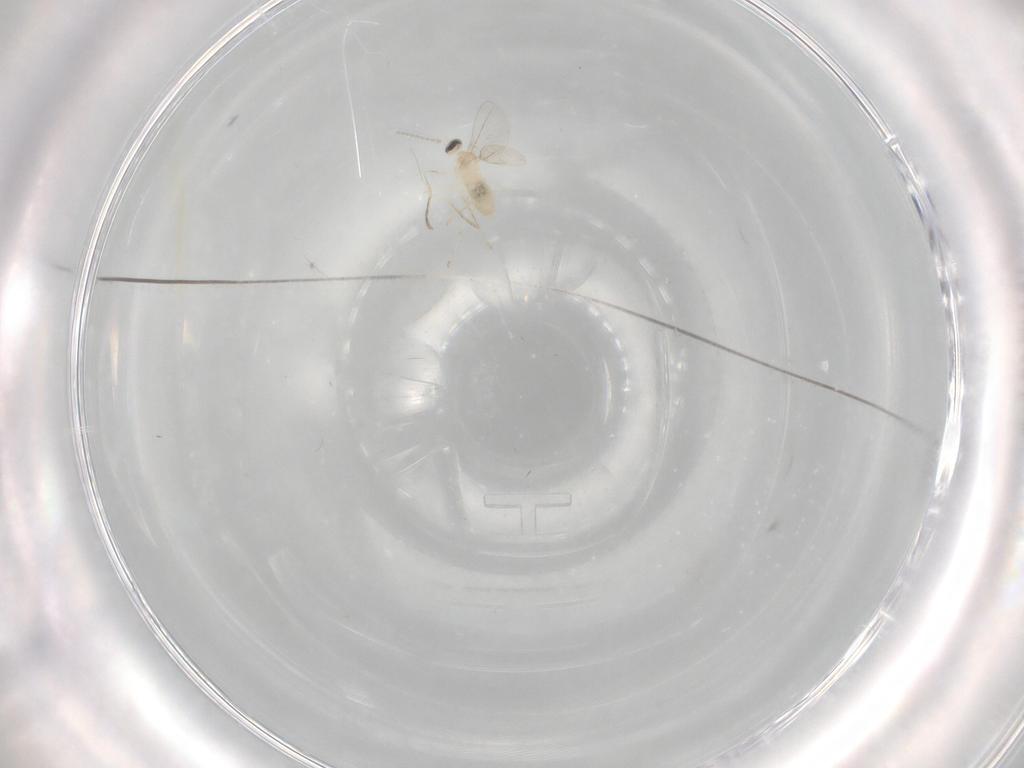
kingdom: Animalia
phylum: Arthropoda
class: Insecta
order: Diptera
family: Cecidomyiidae
